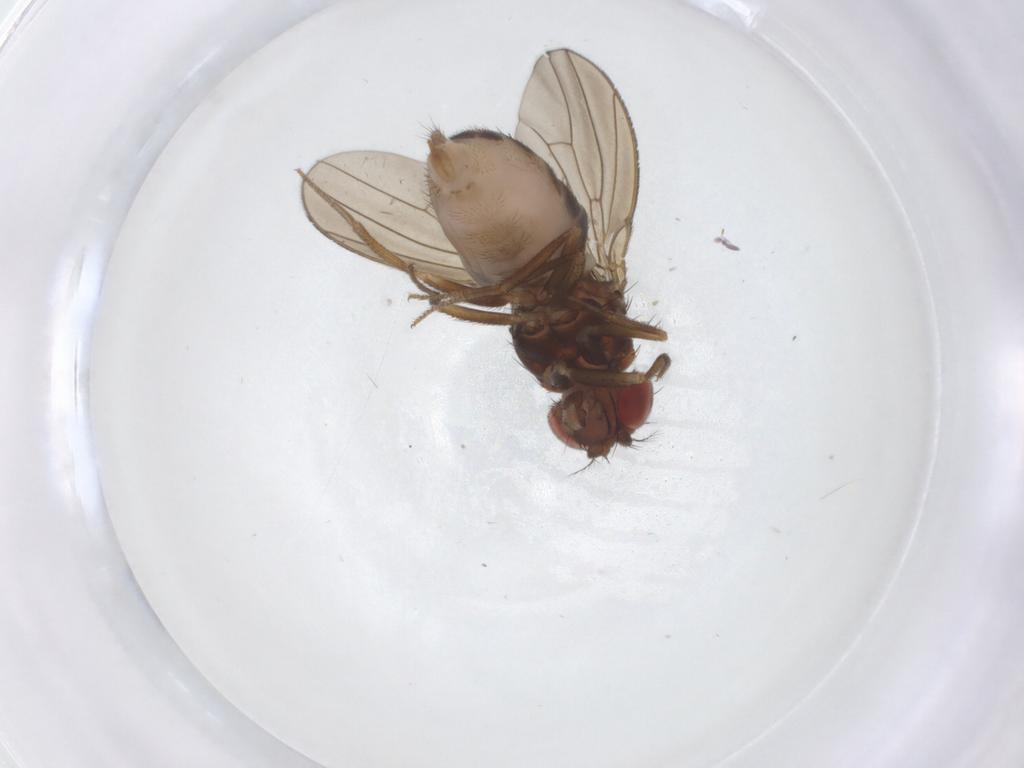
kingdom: Animalia
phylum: Arthropoda
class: Insecta
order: Diptera
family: Drosophilidae
